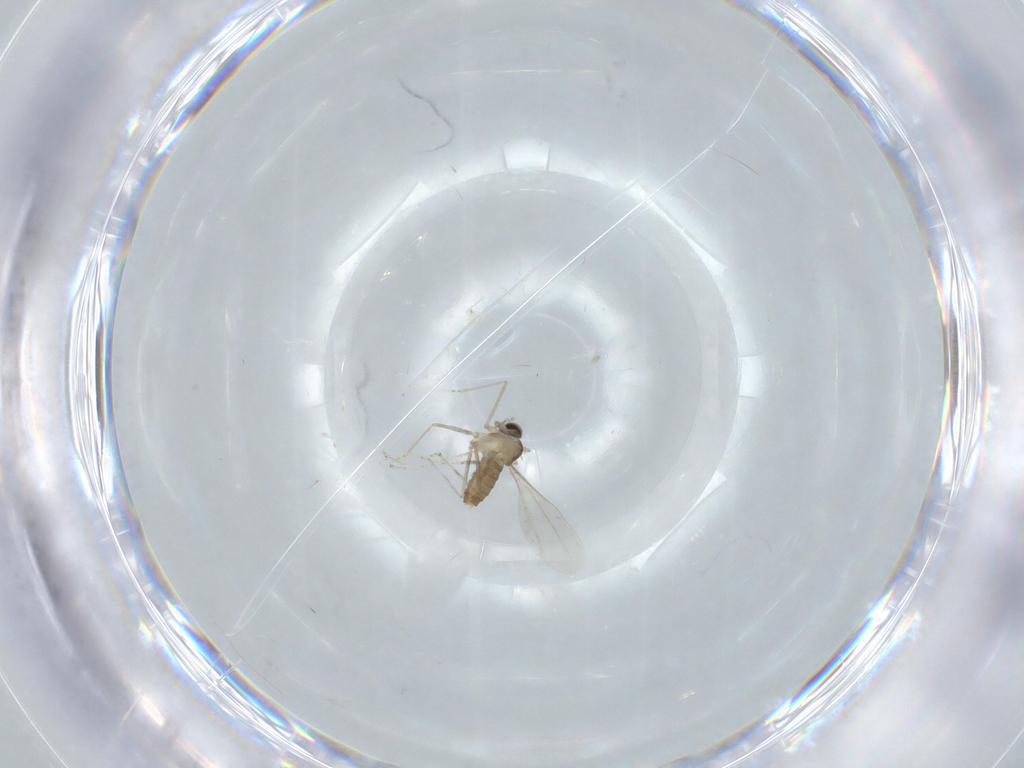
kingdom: Animalia
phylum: Arthropoda
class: Insecta
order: Diptera
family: Cecidomyiidae
